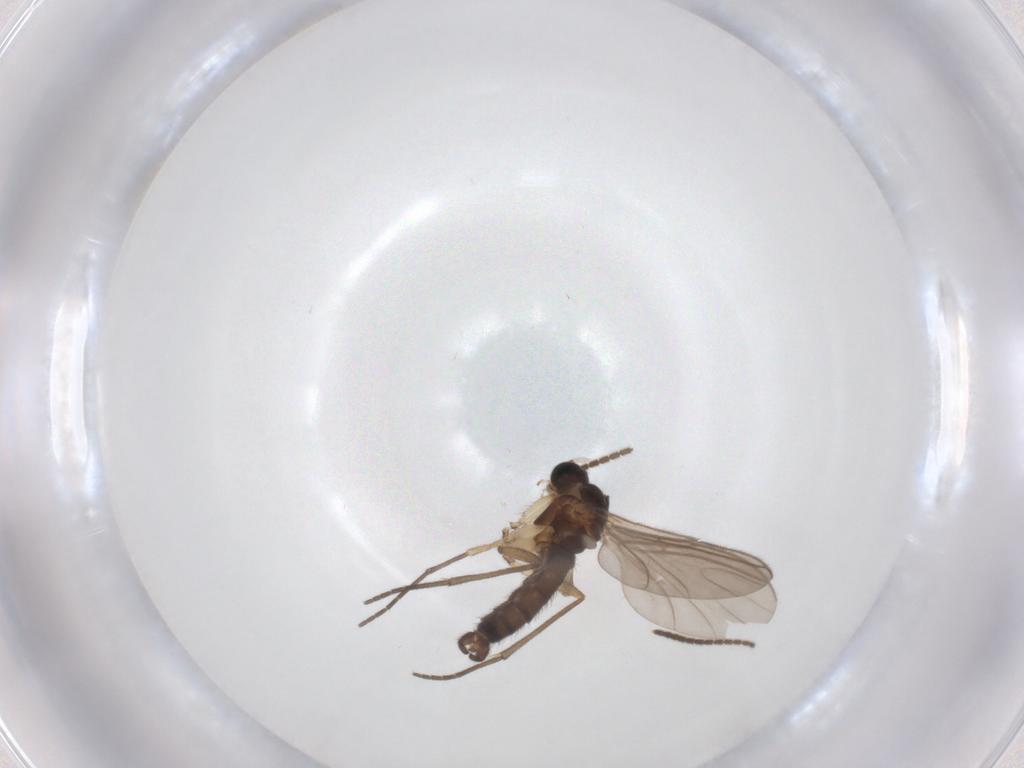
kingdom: Animalia
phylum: Arthropoda
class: Insecta
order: Diptera
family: Sciaridae
